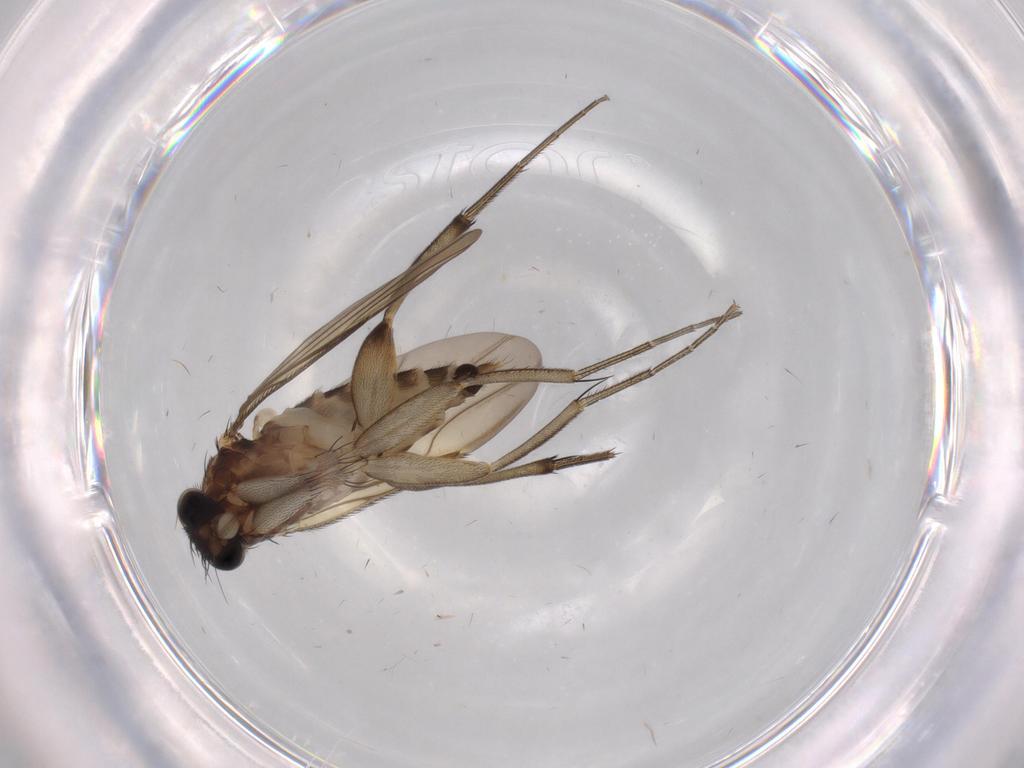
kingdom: Animalia
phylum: Arthropoda
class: Insecta
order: Diptera
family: Phoridae
